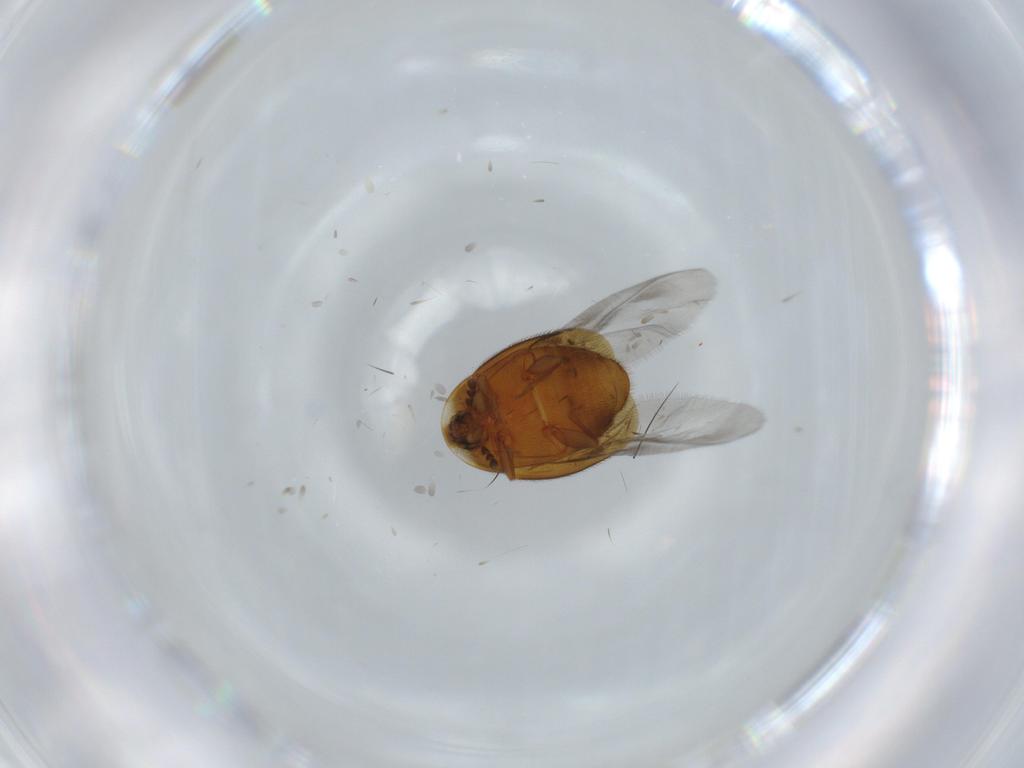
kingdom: Animalia
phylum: Arthropoda
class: Insecta
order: Coleoptera
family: Corylophidae
